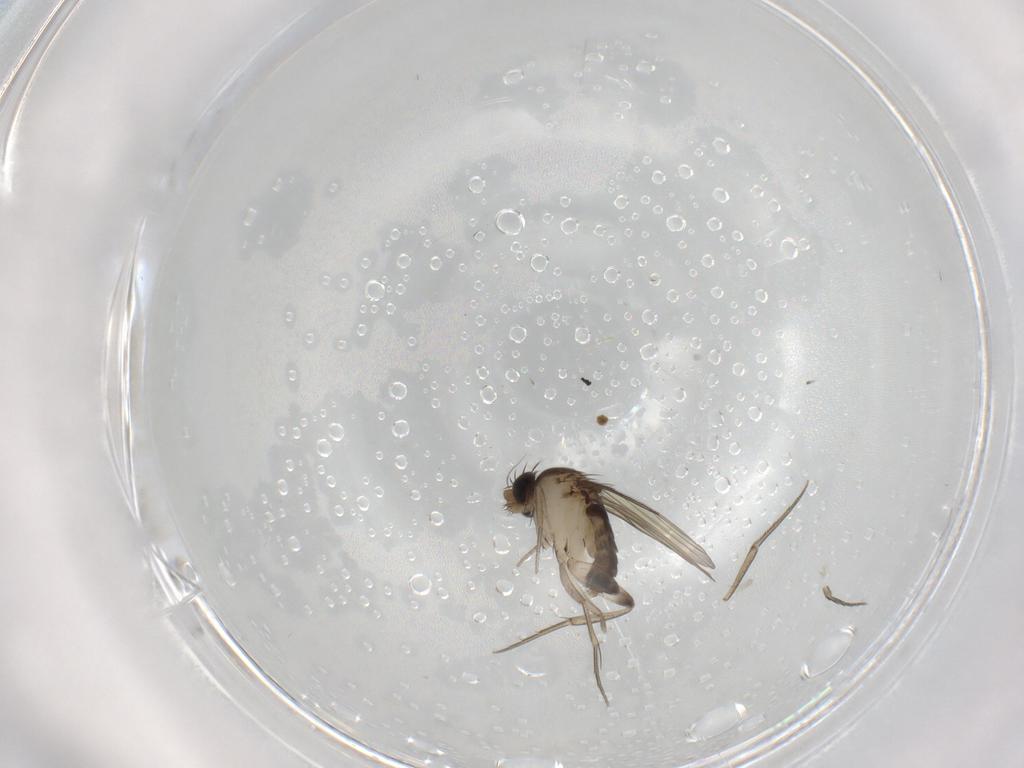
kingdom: Animalia
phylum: Arthropoda
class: Insecta
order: Diptera
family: Phoridae
